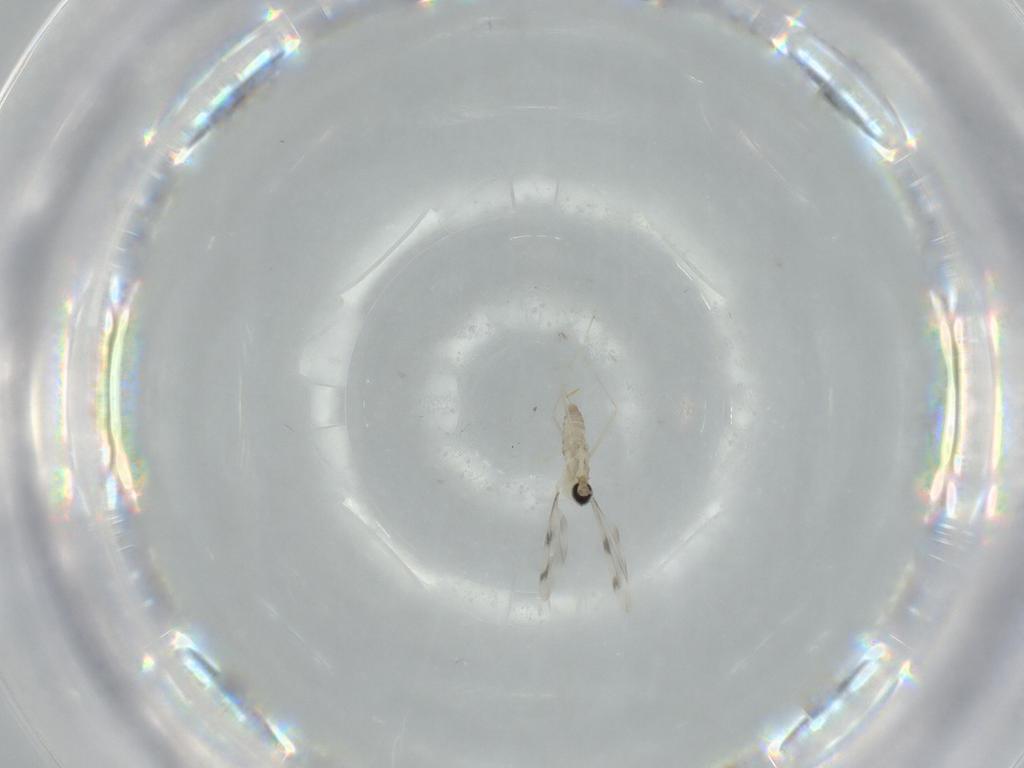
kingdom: Animalia
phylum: Arthropoda
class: Insecta
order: Diptera
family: Cecidomyiidae
